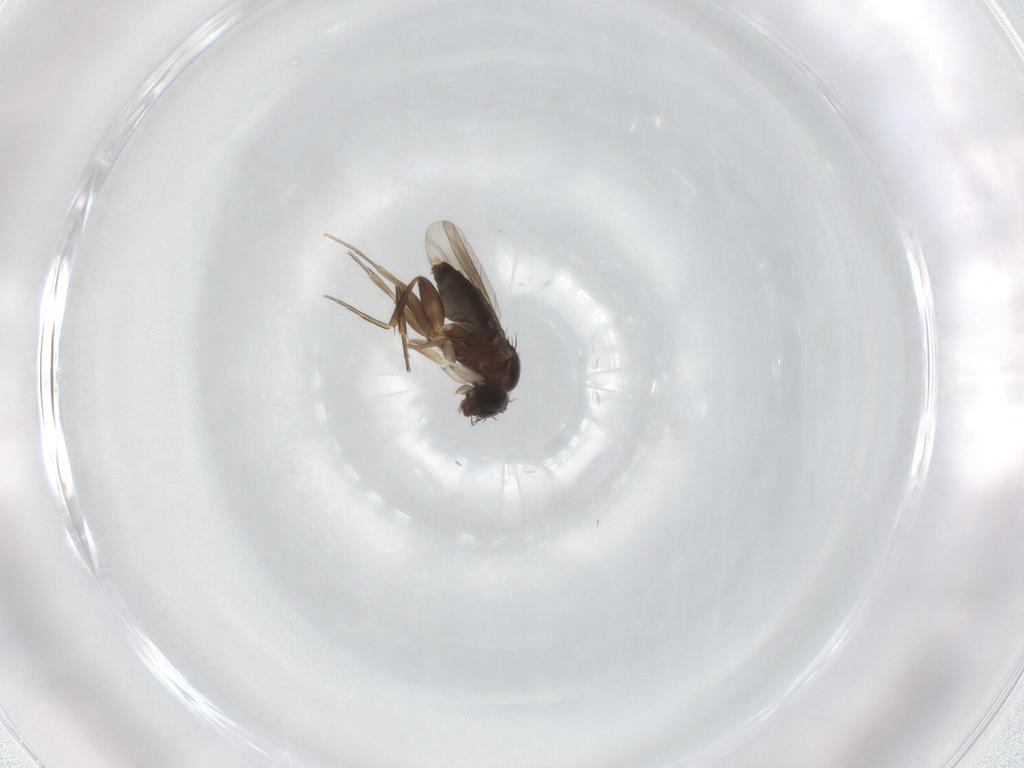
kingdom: Animalia
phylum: Arthropoda
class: Insecta
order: Diptera
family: Phoridae
